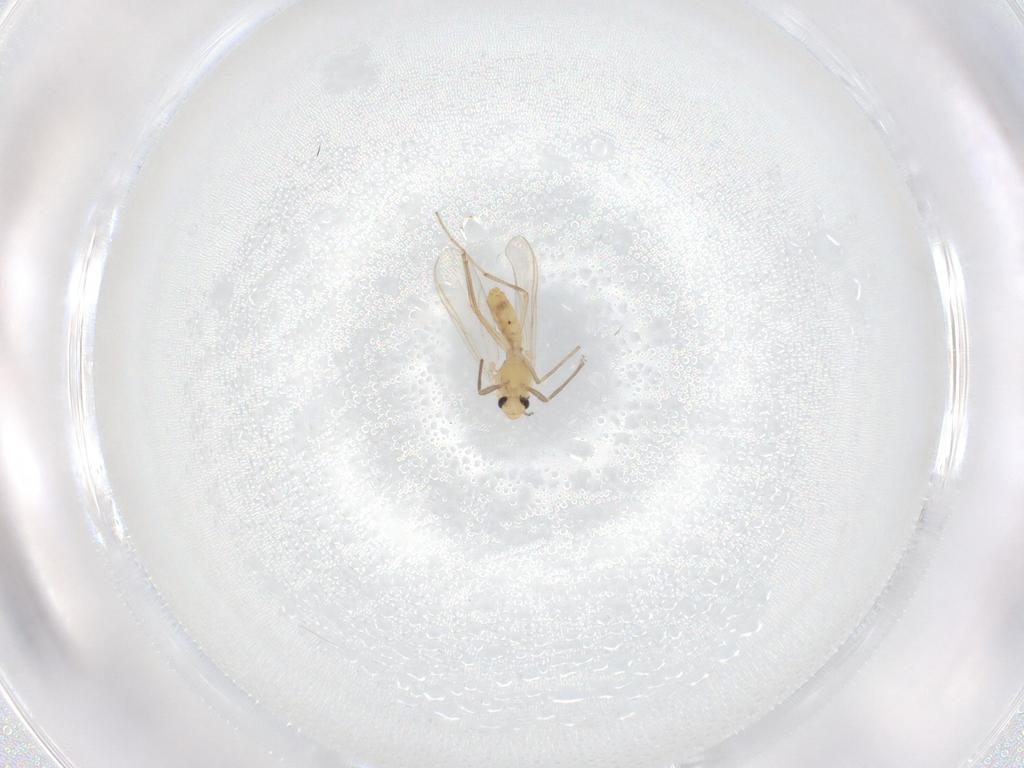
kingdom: Animalia
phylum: Arthropoda
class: Insecta
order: Diptera
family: Chironomidae
